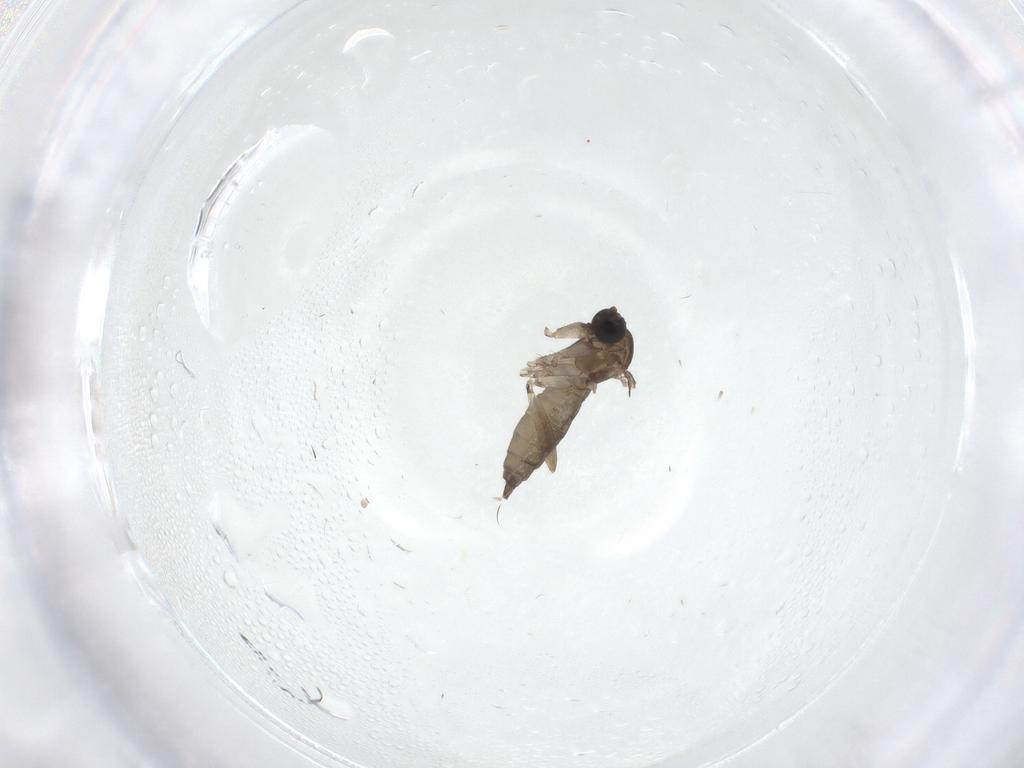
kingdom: Animalia
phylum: Arthropoda
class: Insecta
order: Diptera
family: Sciaridae
